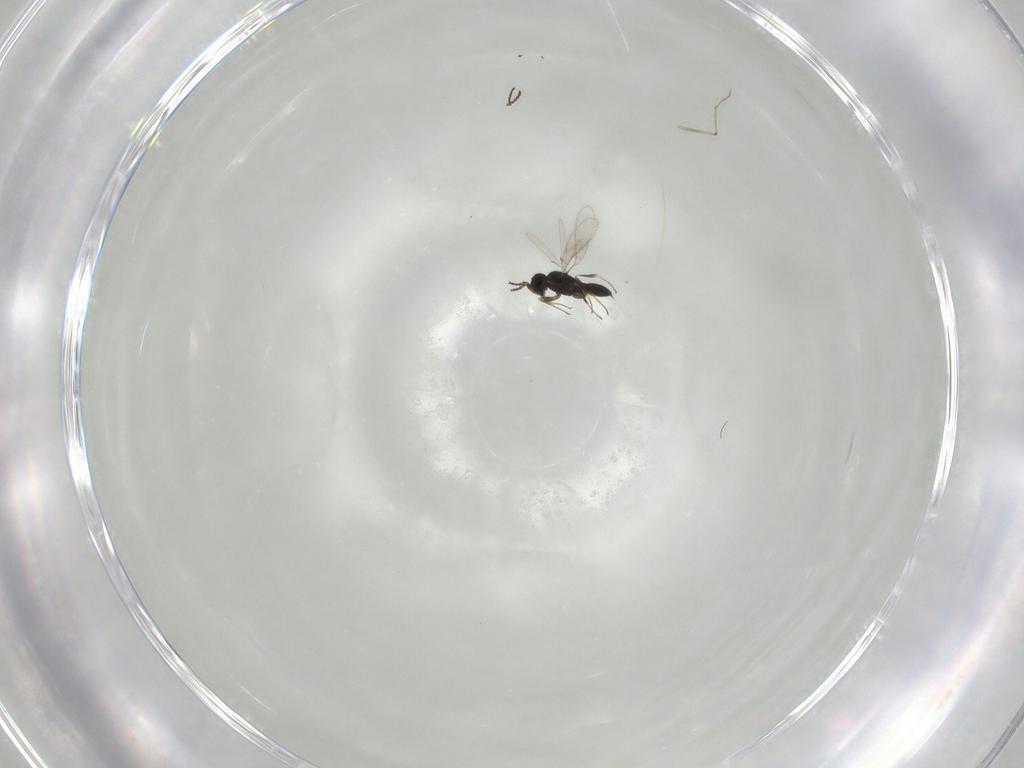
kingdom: Animalia
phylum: Arthropoda
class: Insecta
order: Hymenoptera
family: Scelionidae
